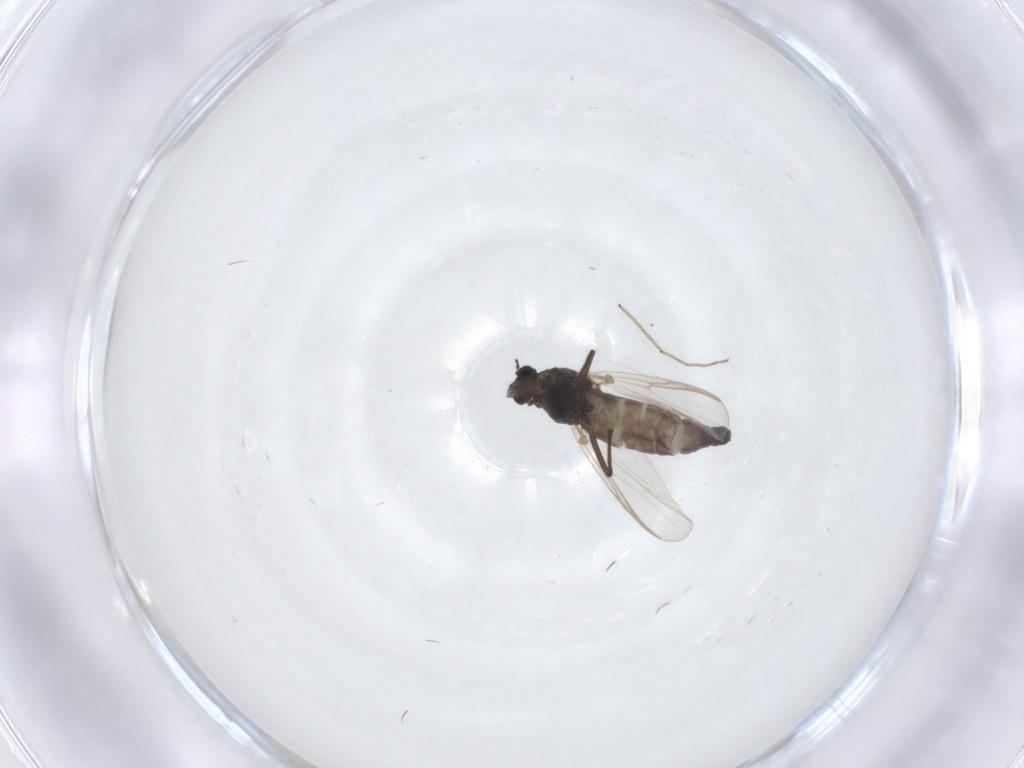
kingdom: Animalia
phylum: Arthropoda
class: Insecta
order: Diptera
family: Chironomidae
